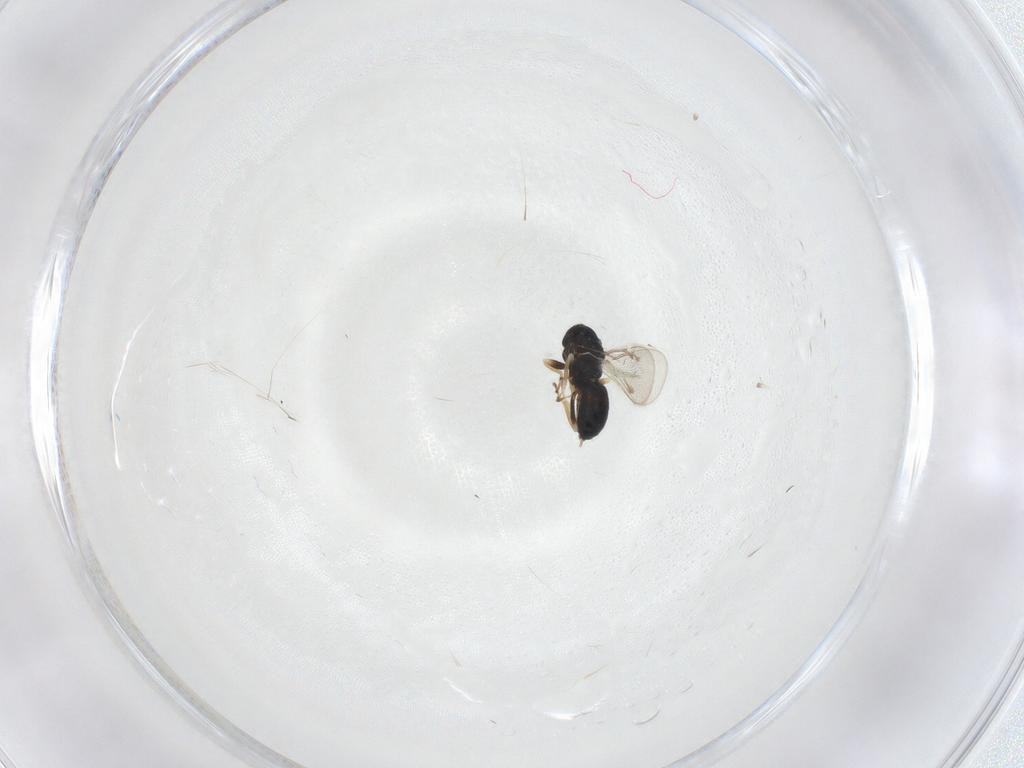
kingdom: Animalia
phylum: Arthropoda
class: Insecta
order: Hymenoptera
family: Eulophidae
